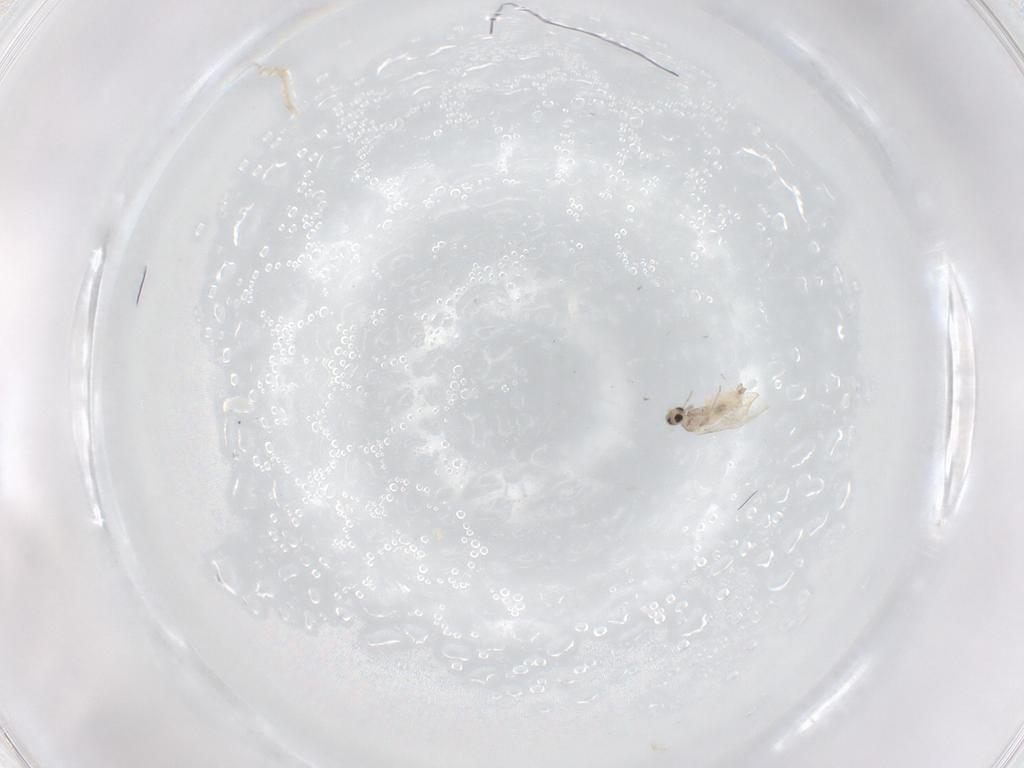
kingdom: Animalia
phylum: Arthropoda
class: Insecta
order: Diptera
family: Cecidomyiidae
